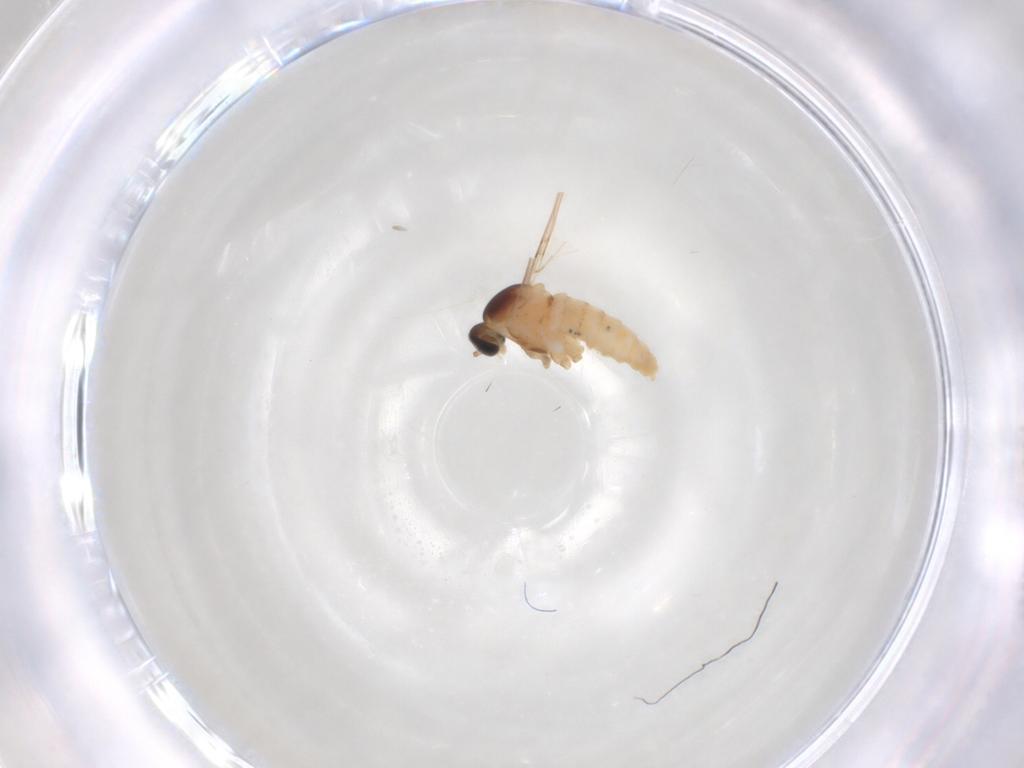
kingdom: Animalia
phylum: Arthropoda
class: Insecta
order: Diptera
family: Cecidomyiidae
